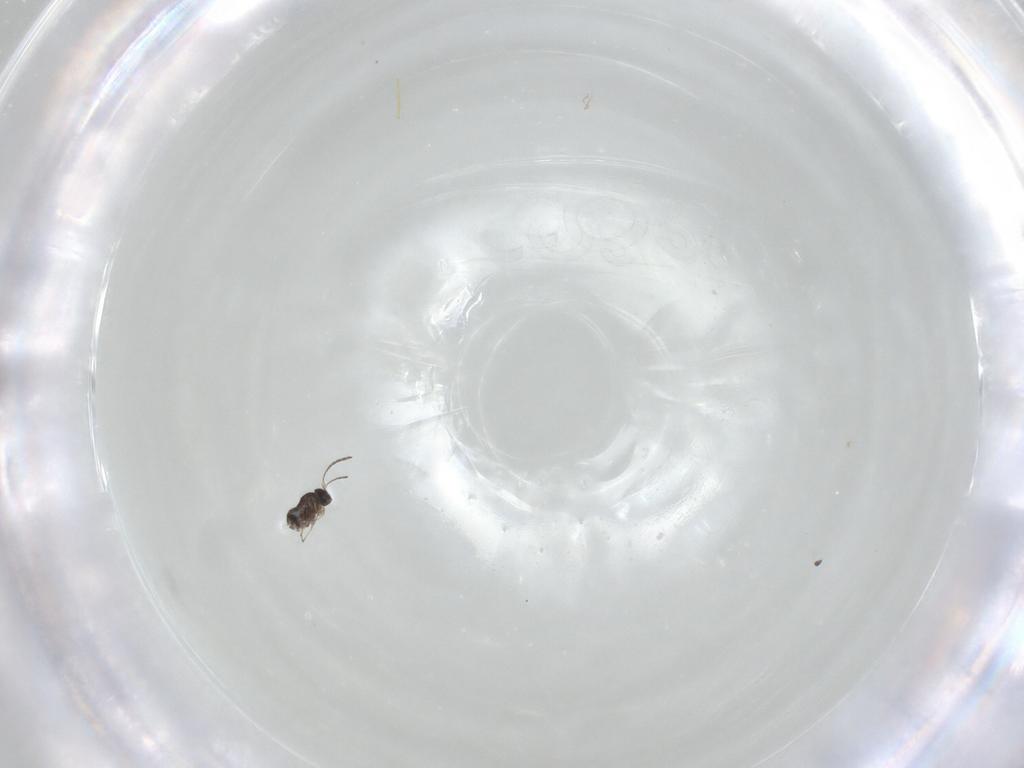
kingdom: Animalia
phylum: Arthropoda
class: Insecta
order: Hymenoptera
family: Eulophidae
